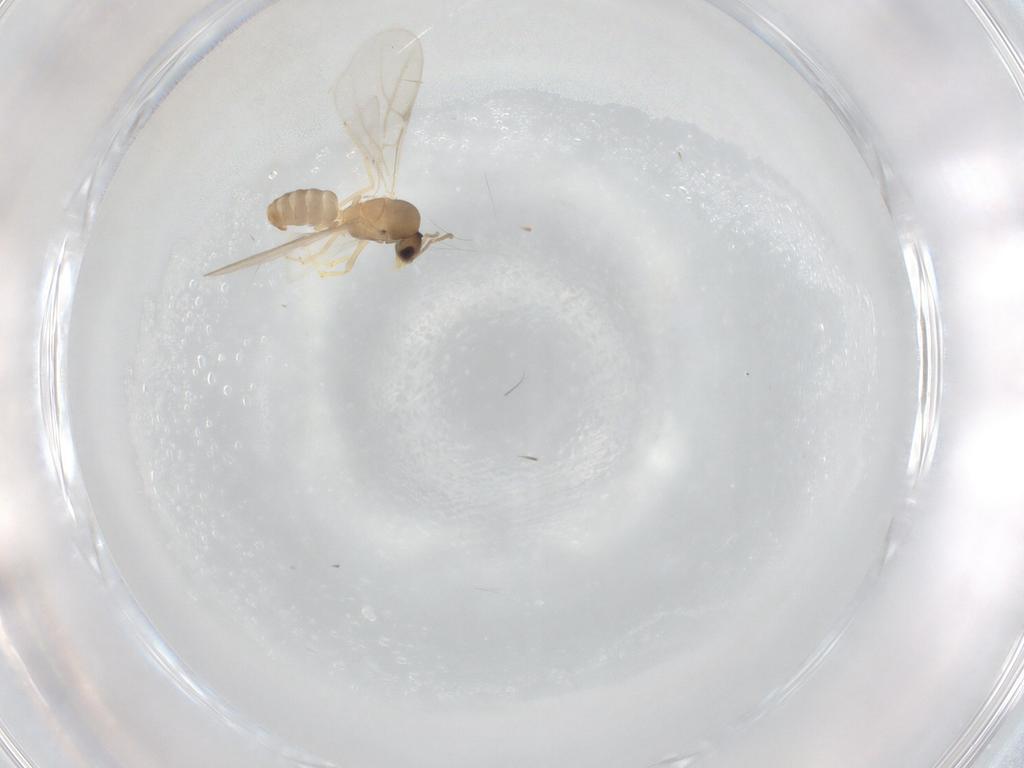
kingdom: Animalia
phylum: Arthropoda
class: Insecta
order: Hymenoptera
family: Formicidae
